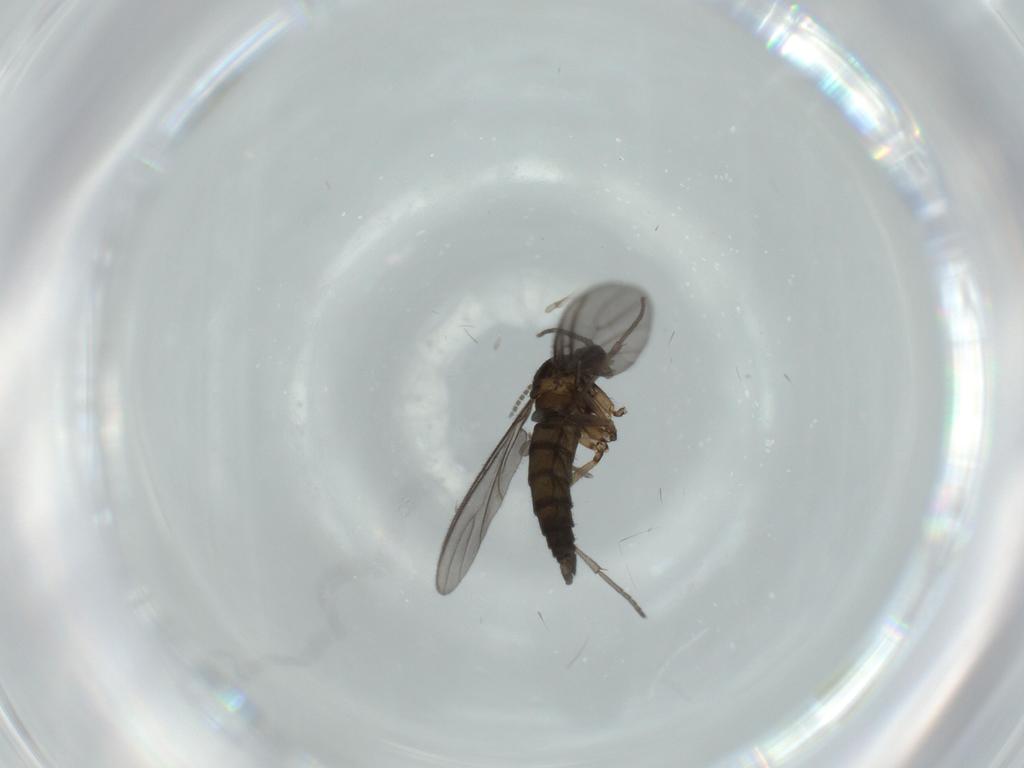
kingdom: Animalia
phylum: Arthropoda
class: Insecta
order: Diptera
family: Sciaridae
